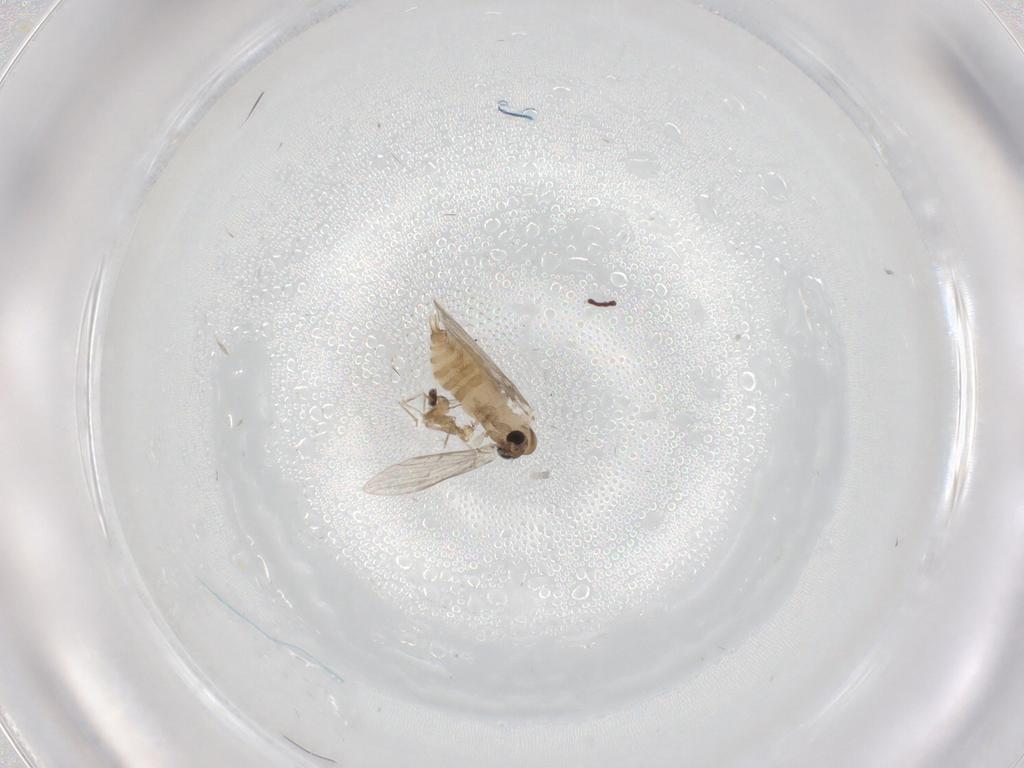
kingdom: Animalia
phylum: Arthropoda
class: Insecta
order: Diptera
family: Psychodidae
